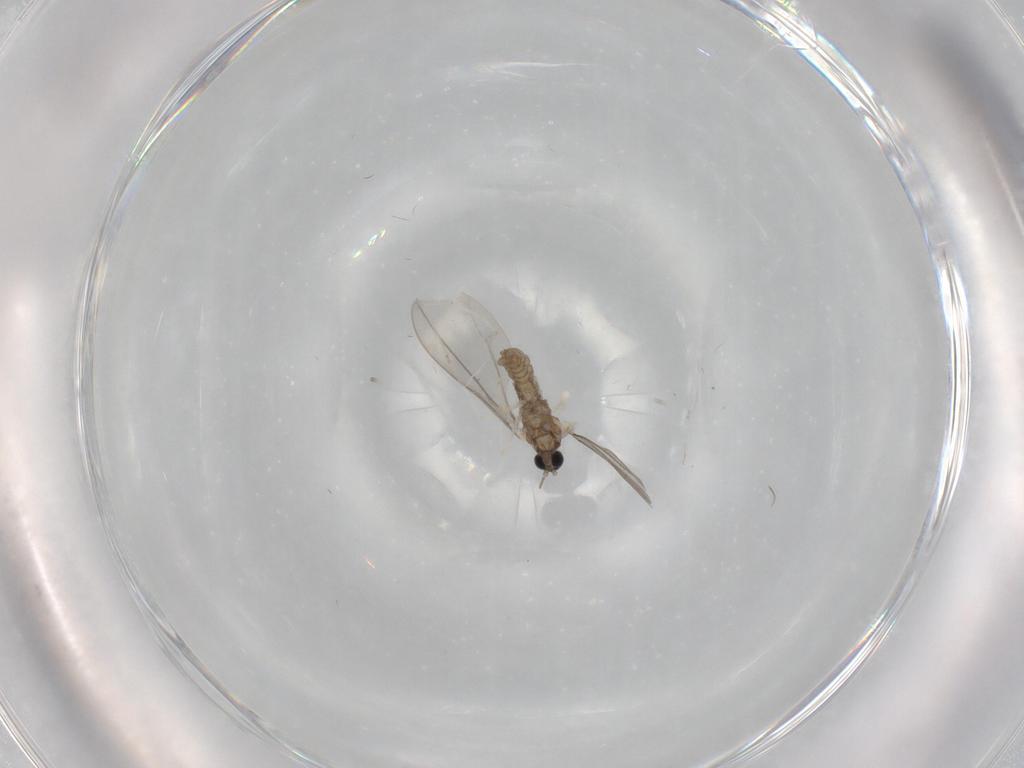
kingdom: Animalia
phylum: Arthropoda
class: Insecta
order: Diptera
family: Cecidomyiidae
